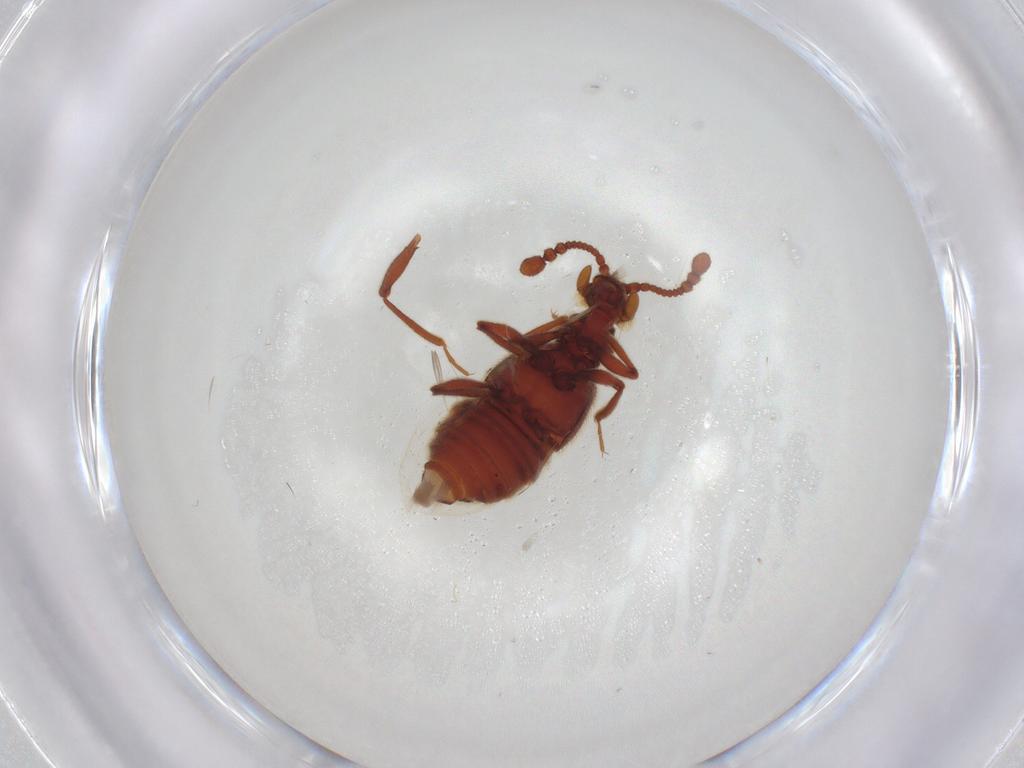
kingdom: Animalia
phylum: Arthropoda
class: Insecta
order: Coleoptera
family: Staphylinidae
